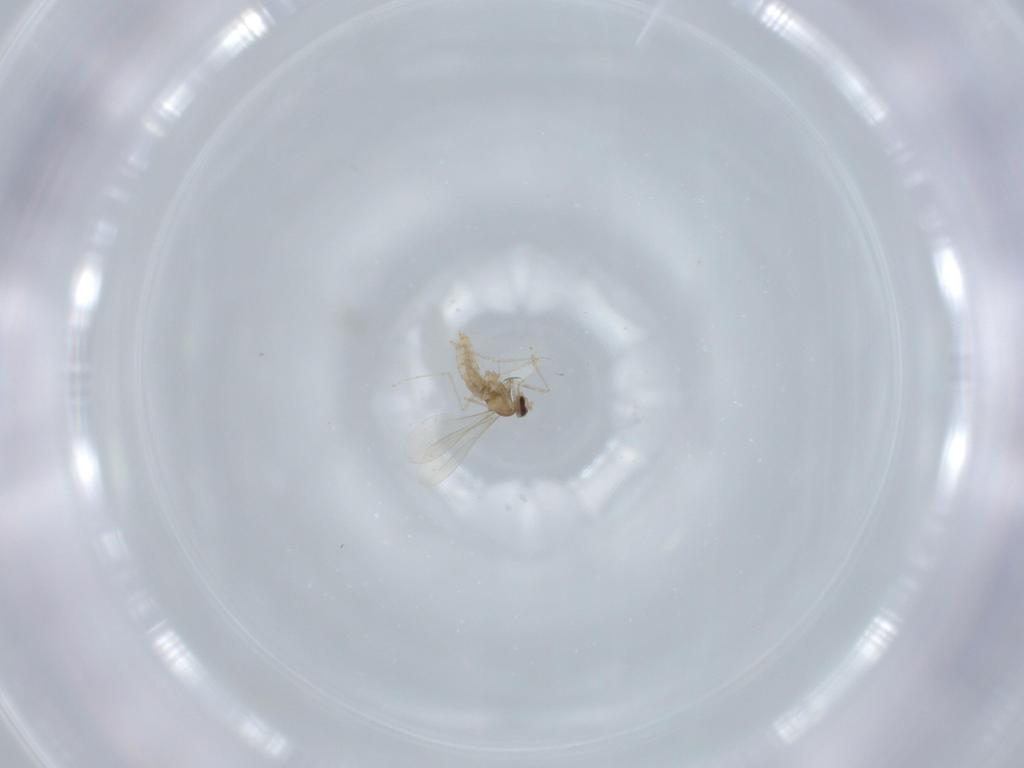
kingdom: Animalia
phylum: Arthropoda
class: Insecta
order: Diptera
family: Cecidomyiidae
